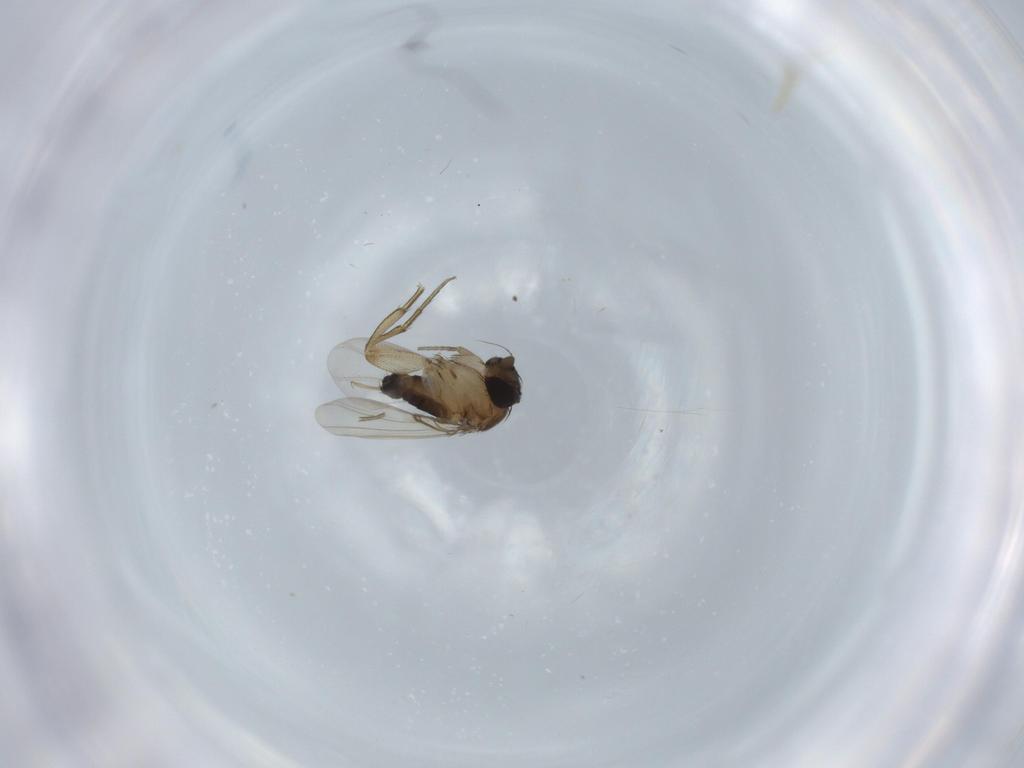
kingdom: Animalia
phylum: Arthropoda
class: Insecta
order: Diptera
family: Phoridae
